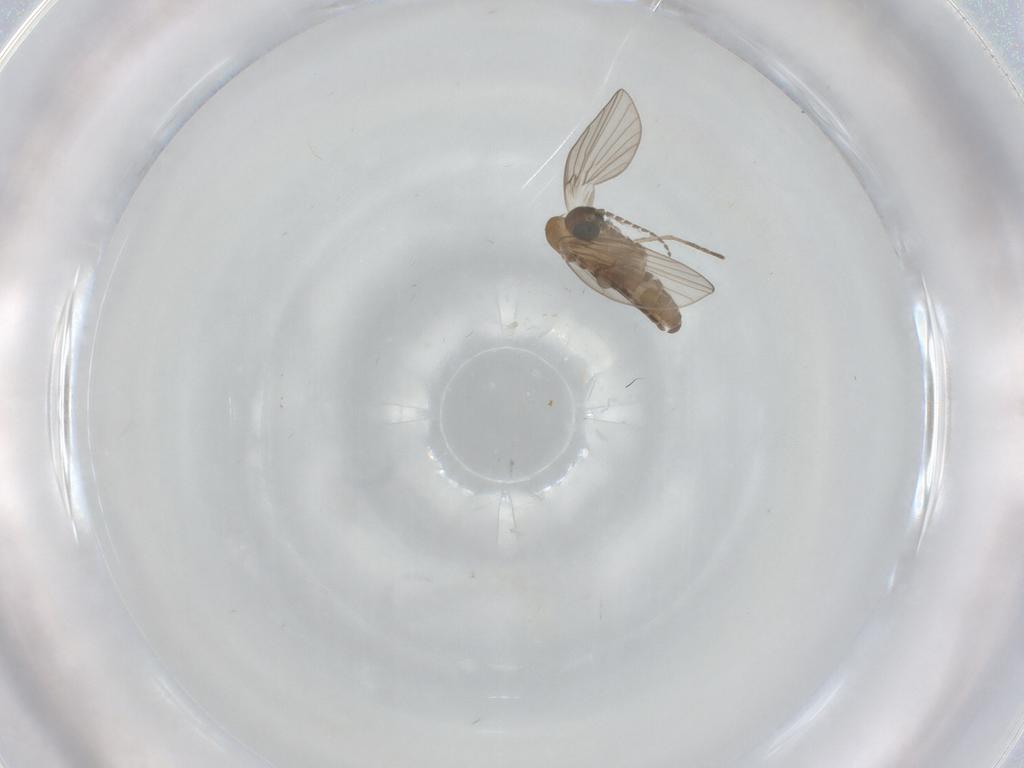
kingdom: Animalia
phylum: Arthropoda
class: Insecta
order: Diptera
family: Psychodidae
